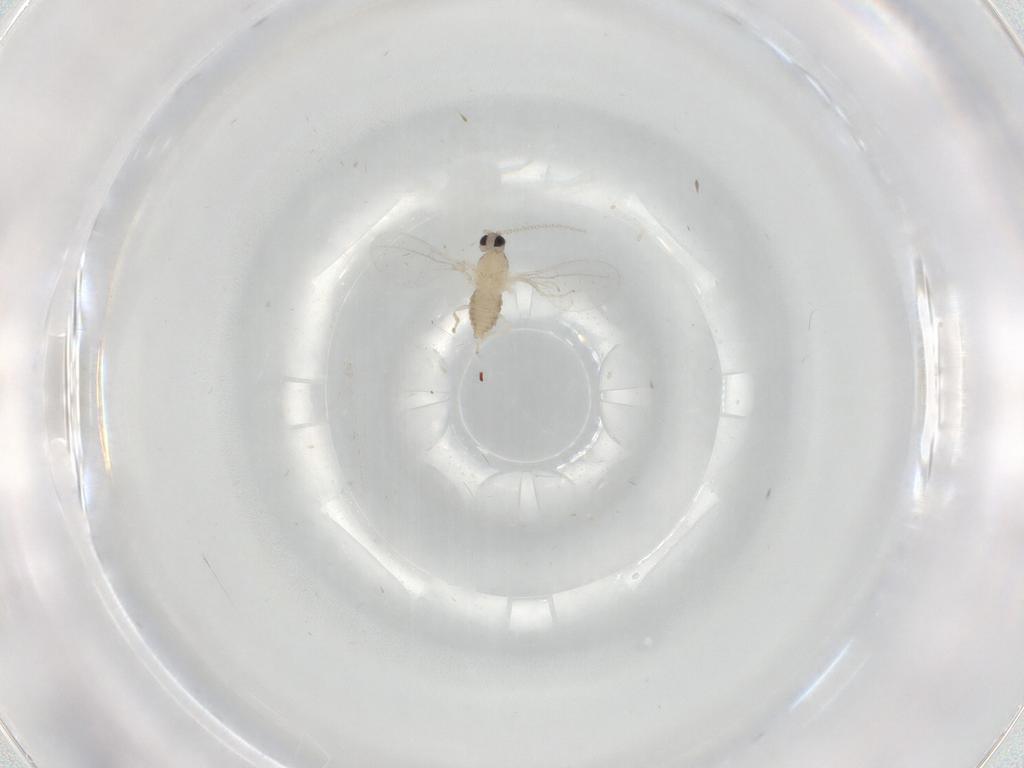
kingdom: Animalia
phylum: Arthropoda
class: Insecta
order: Diptera
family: Cecidomyiidae
